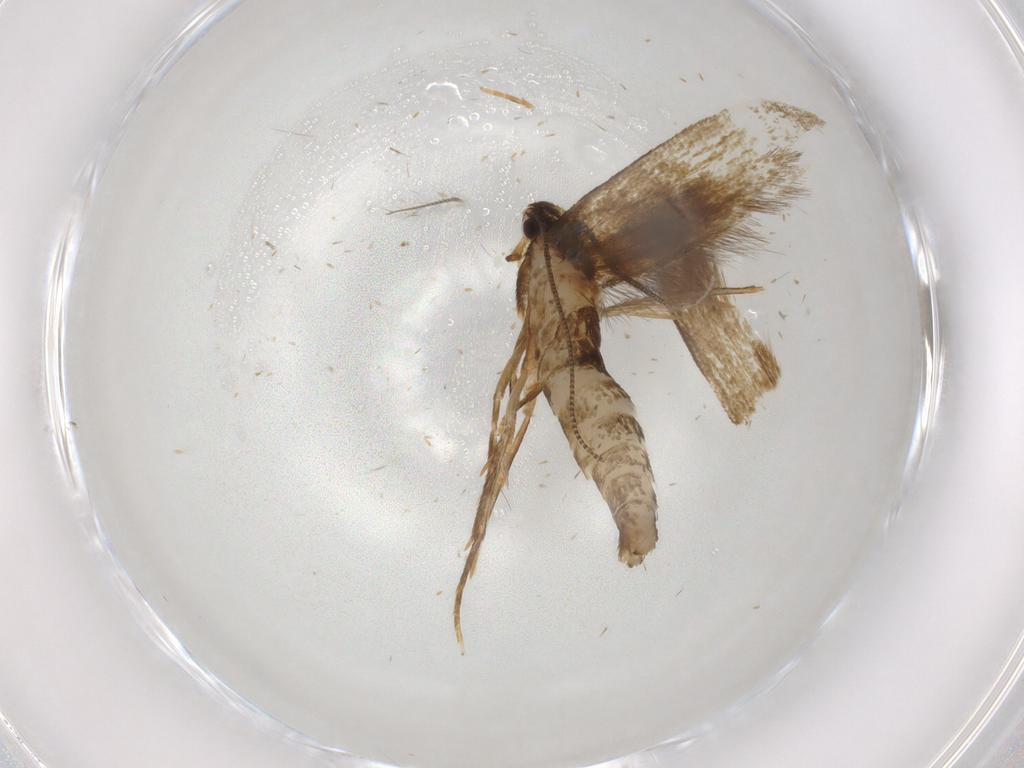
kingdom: Animalia
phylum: Arthropoda
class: Insecta
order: Lepidoptera
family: Tineidae
